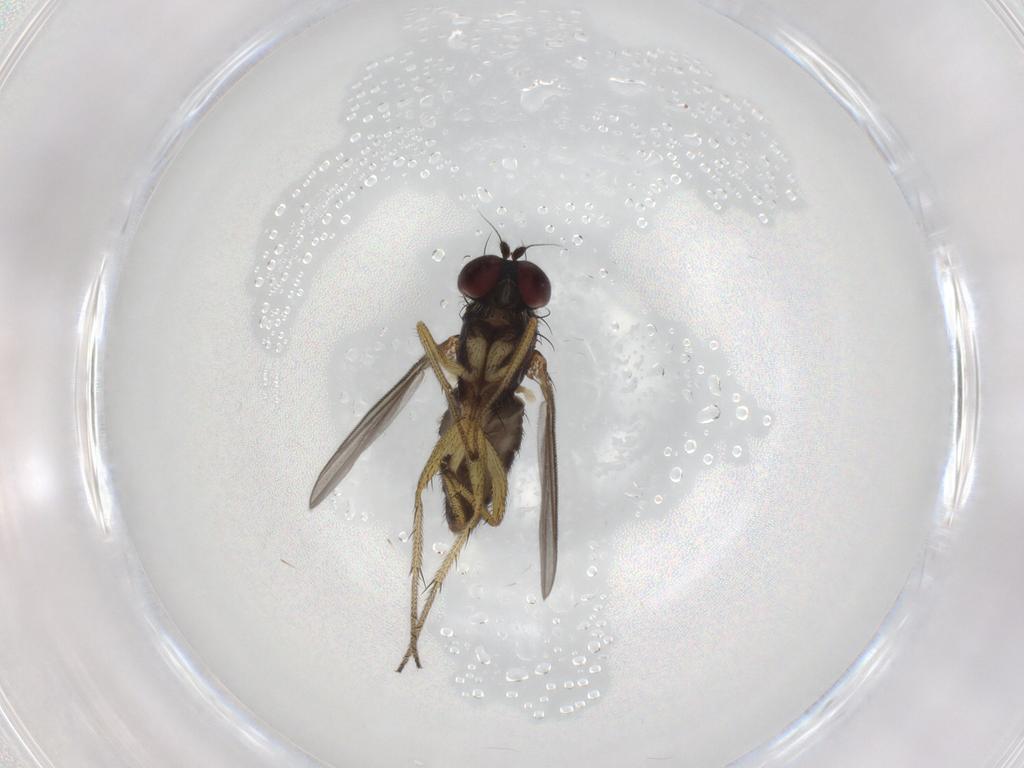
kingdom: Animalia
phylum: Arthropoda
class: Insecta
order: Diptera
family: Dolichopodidae
